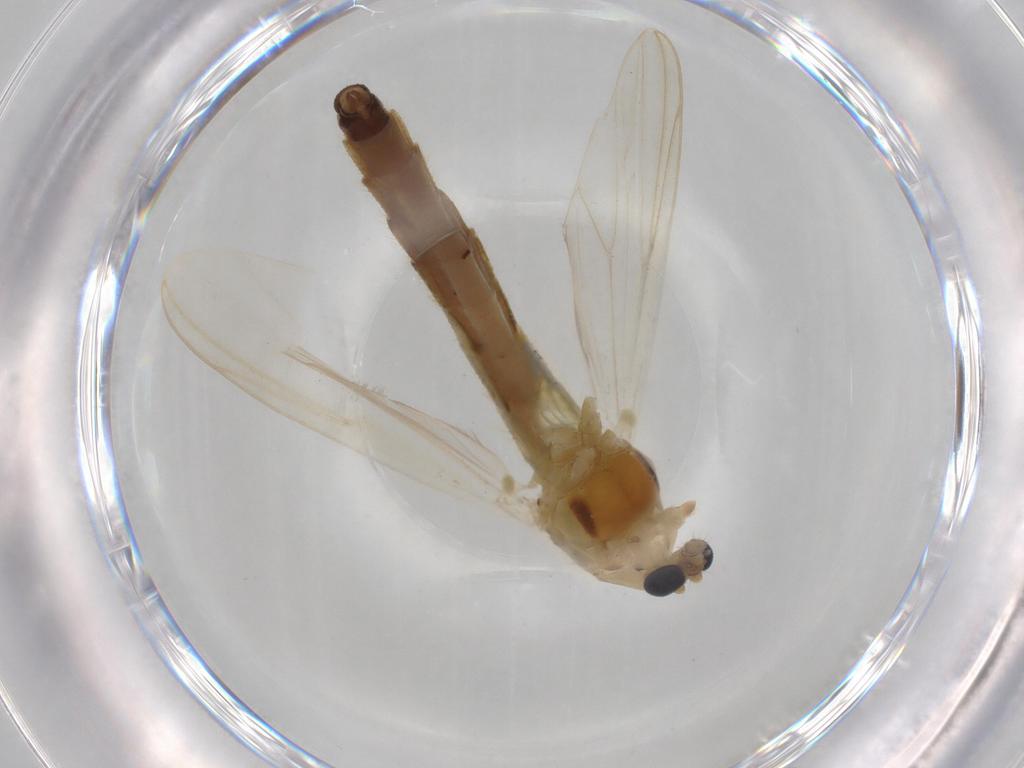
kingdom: Animalia
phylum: Arthropoda
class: Insecta
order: Diptera
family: Chironomidae
